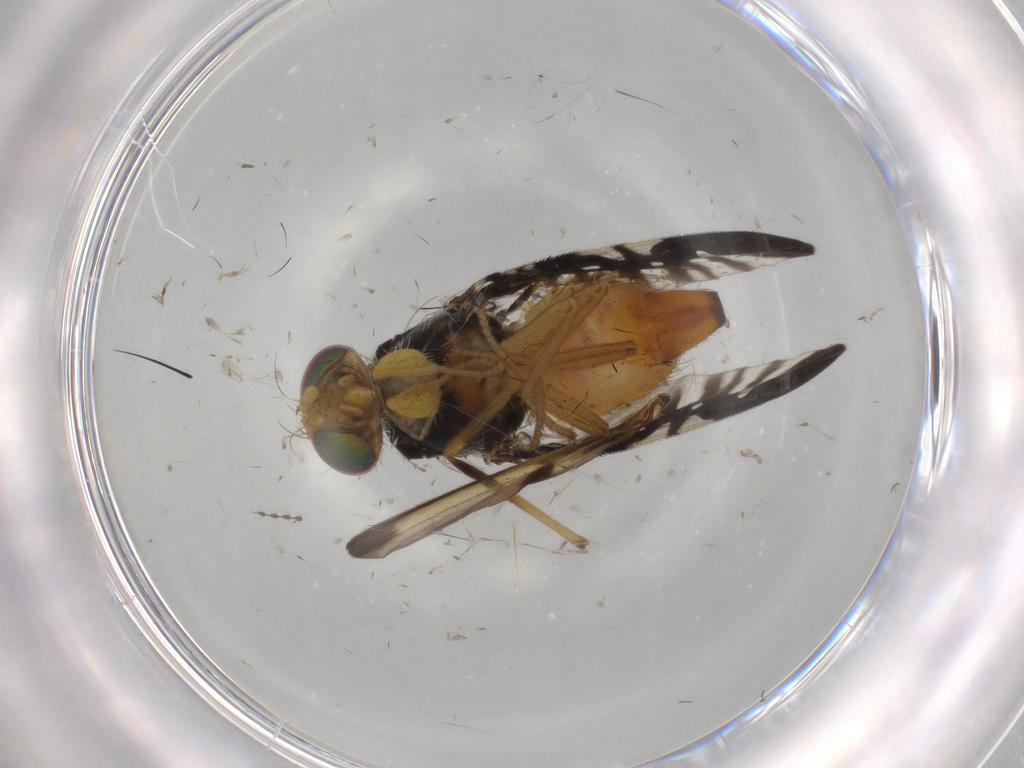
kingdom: Animalia
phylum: Arthropoda
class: Insecta
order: Diptera
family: Tephritidae
